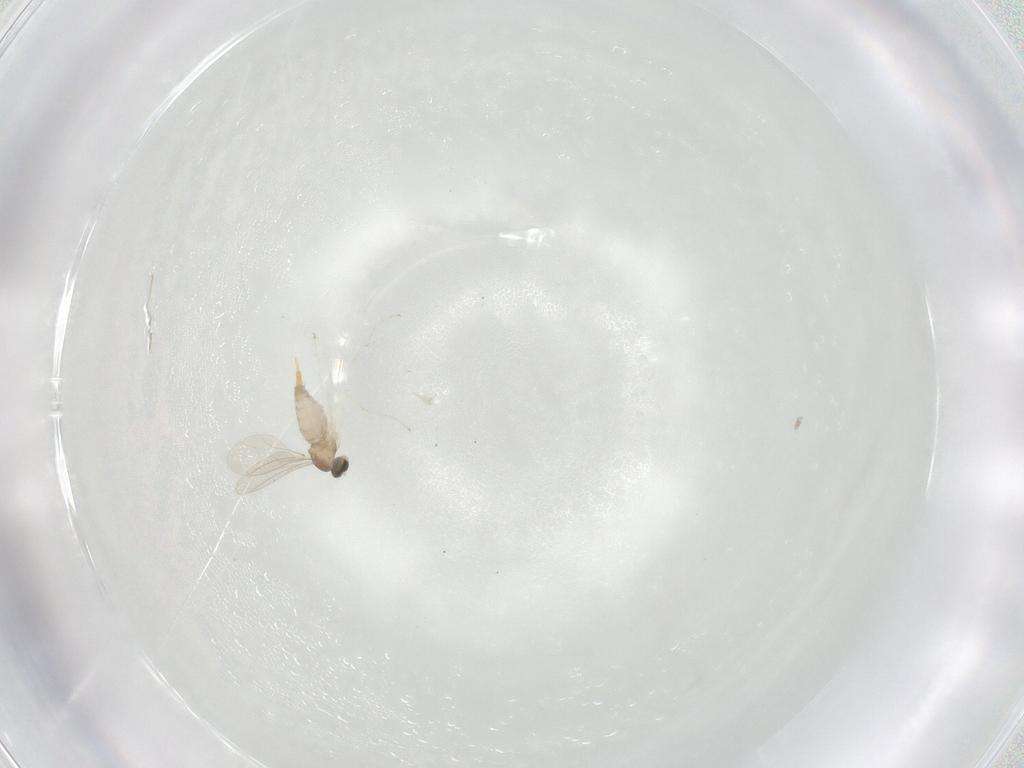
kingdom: Animalia
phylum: Arthropoda
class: Insecta
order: Diptera
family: Cecidomyiidae
